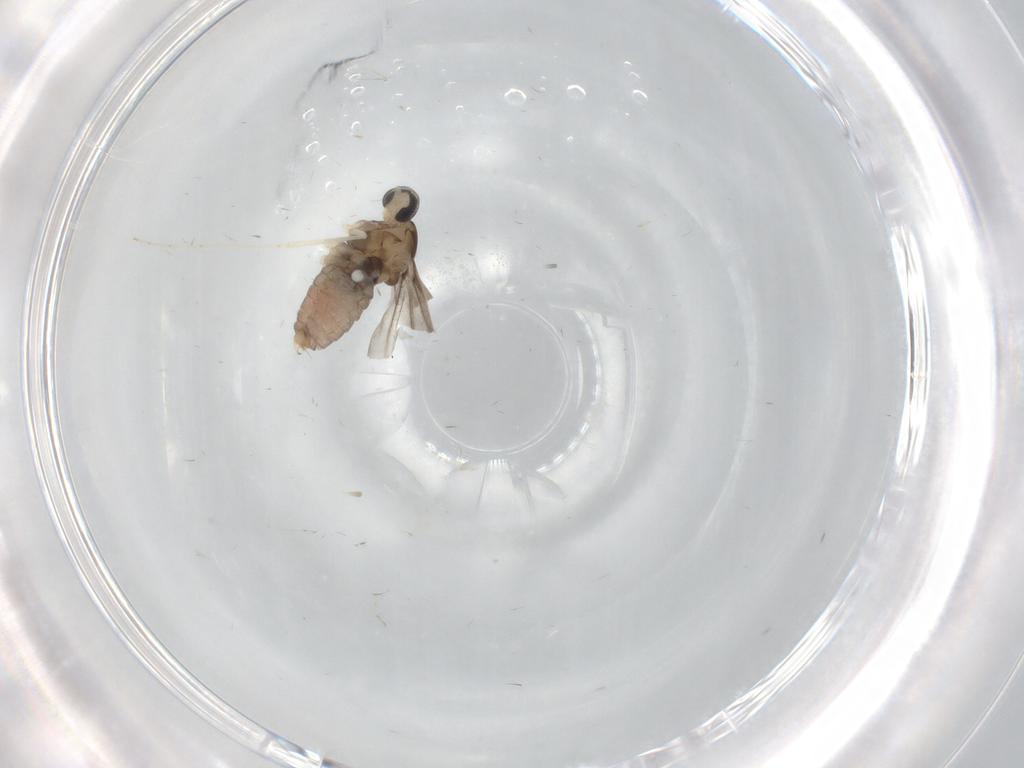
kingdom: Animalia
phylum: Arthropoda
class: Insecta
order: Diptera
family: Cecidomyiidae
